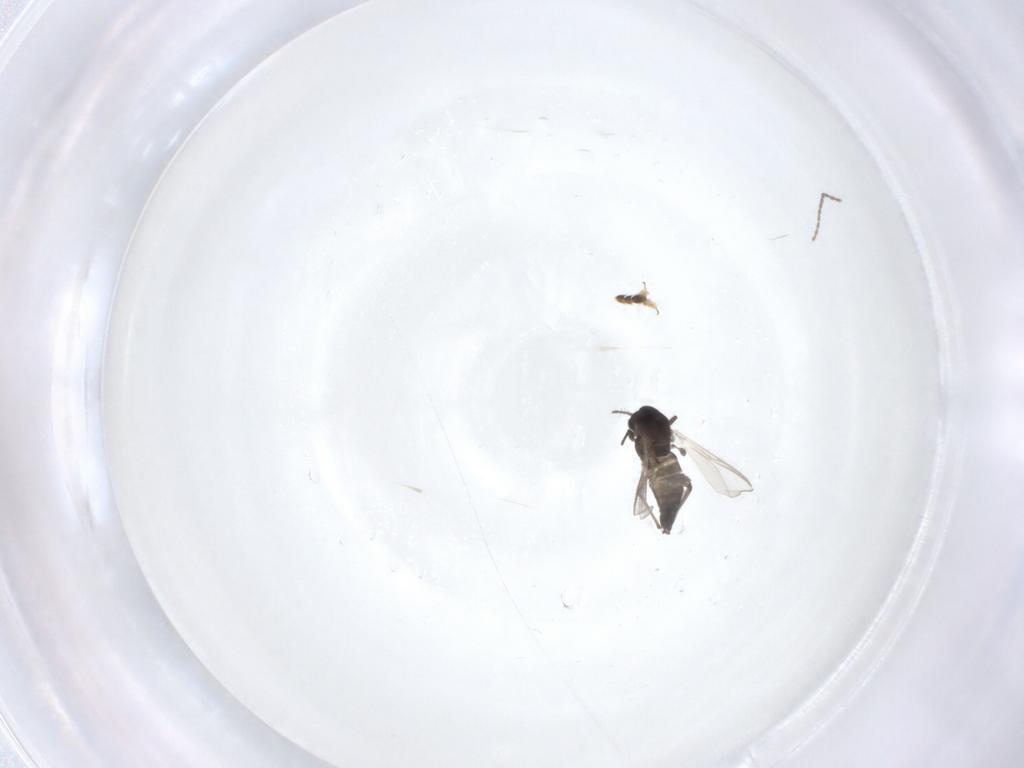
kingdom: Animalia
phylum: Arthropoda
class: Insecta
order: Diptera
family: Chironomidae
